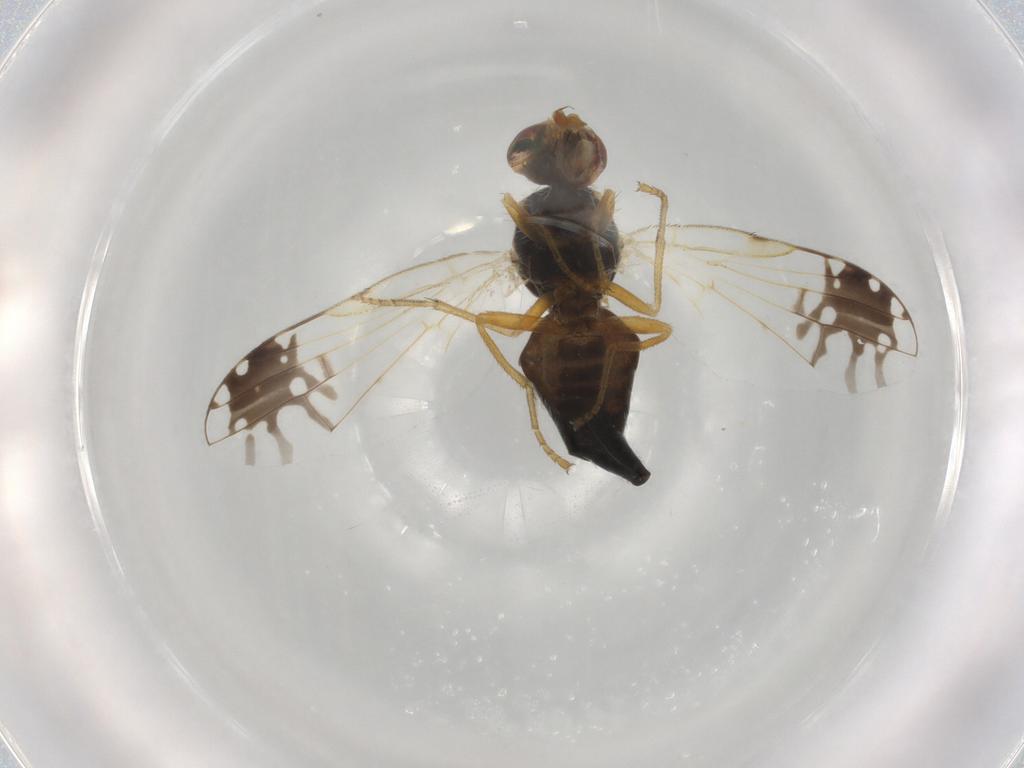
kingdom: Animalia
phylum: Arthropoda
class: Insecta
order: Diptera
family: Tephritidae
